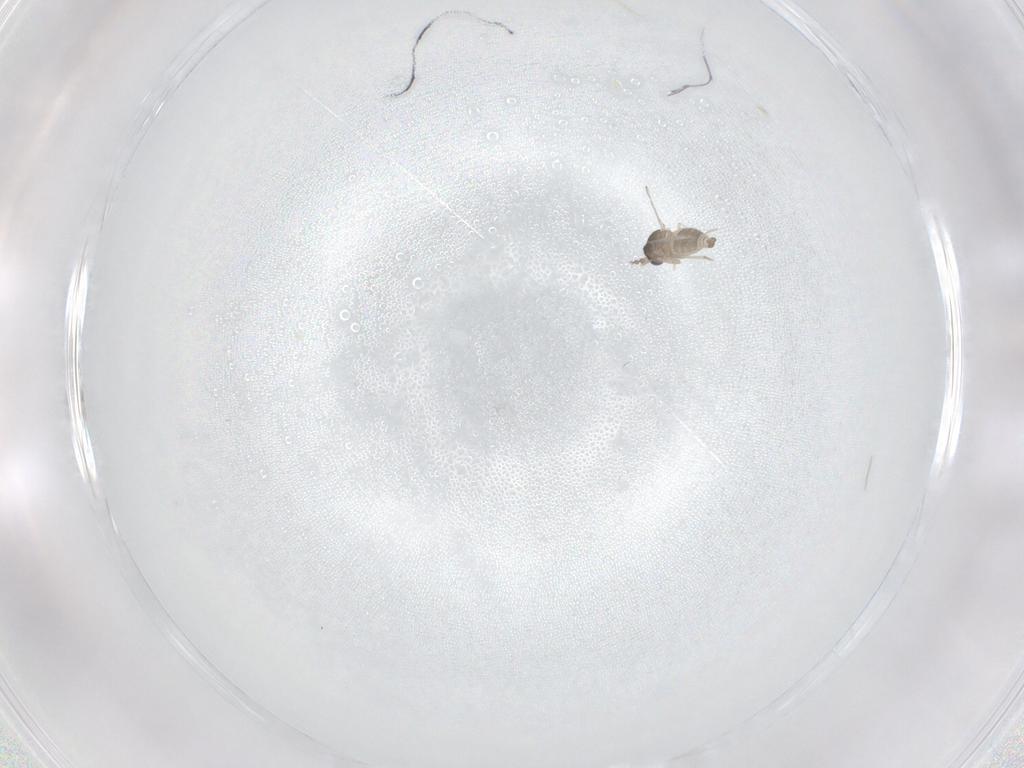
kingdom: Animalia
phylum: Arthropoda
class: Insecta
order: Diptera
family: Cecidomyiidae
